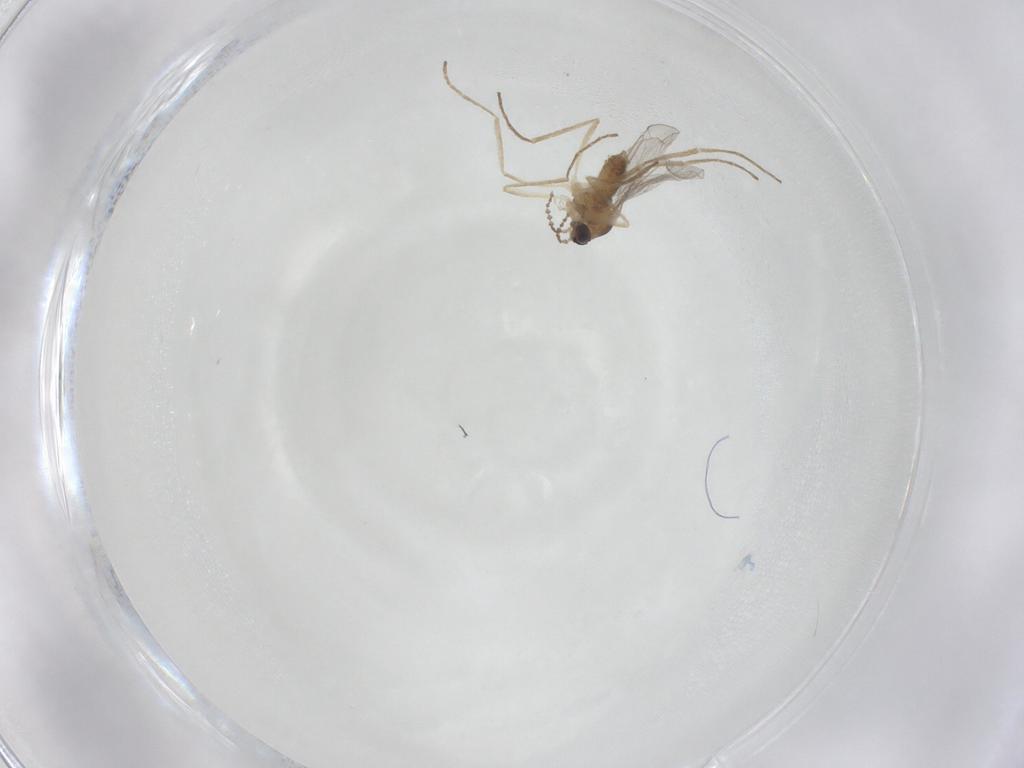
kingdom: Animalia
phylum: Arthropoda
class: Insecta
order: Diptera
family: Cecidomyiidae
